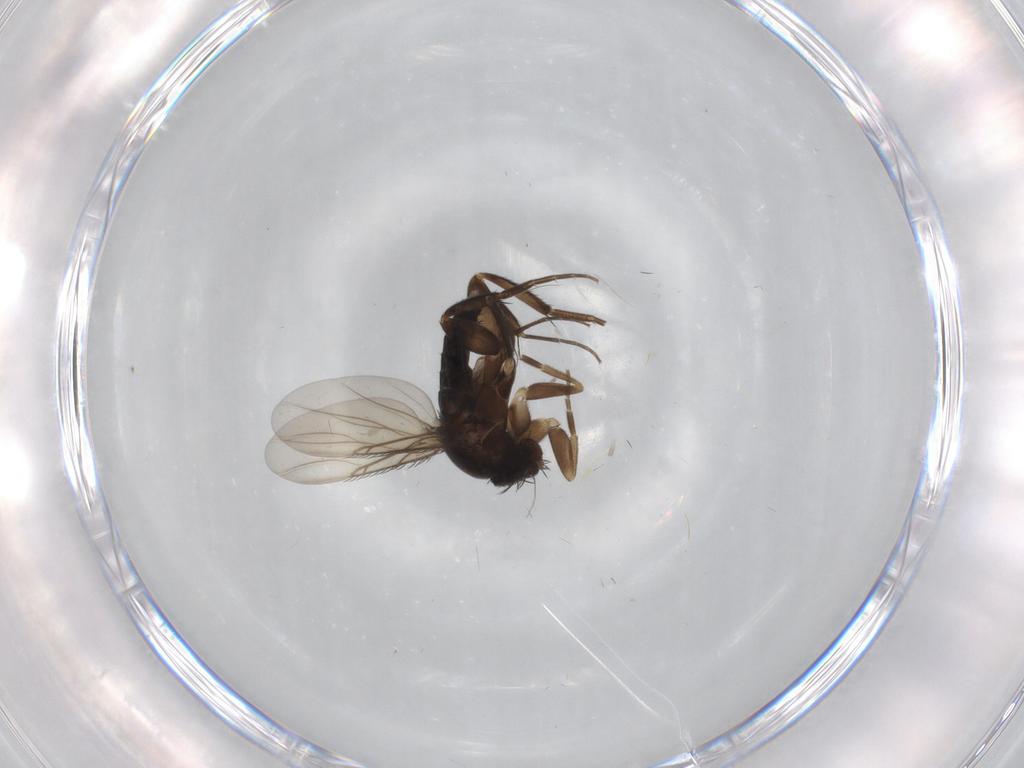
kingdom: Animalia
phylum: Arthropoda
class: Insecta
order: Diptera
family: Phoridae
